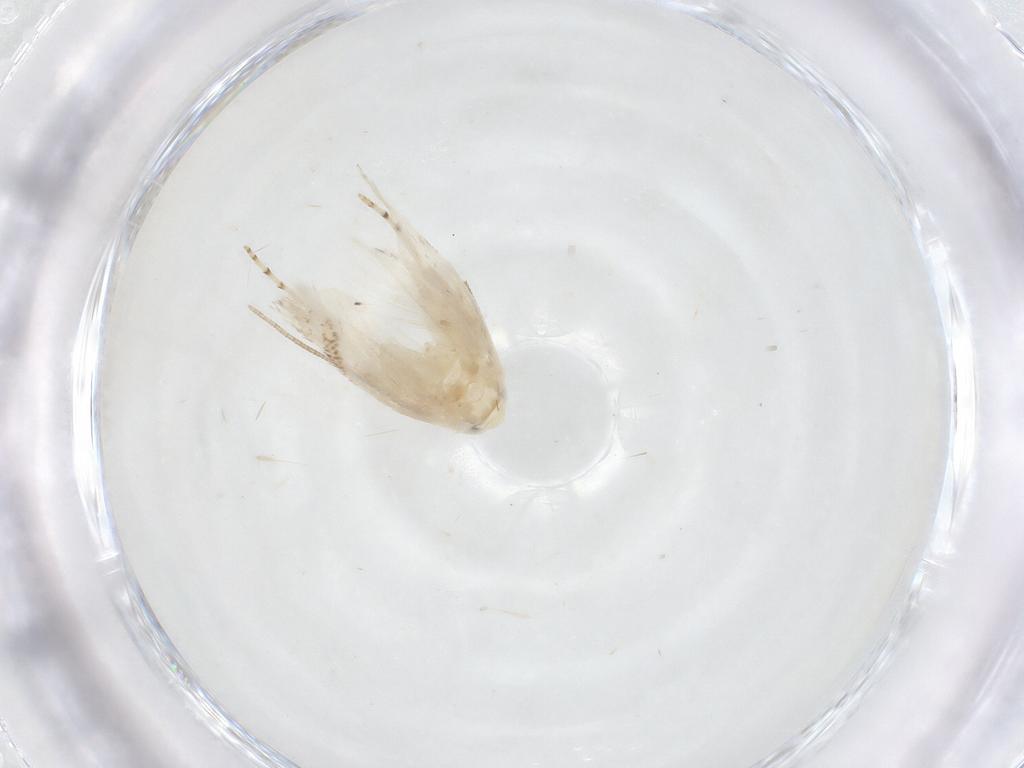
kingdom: Animalia
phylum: Arthropoda
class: Insecta
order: Lepidoptera
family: Lyonetiidae
